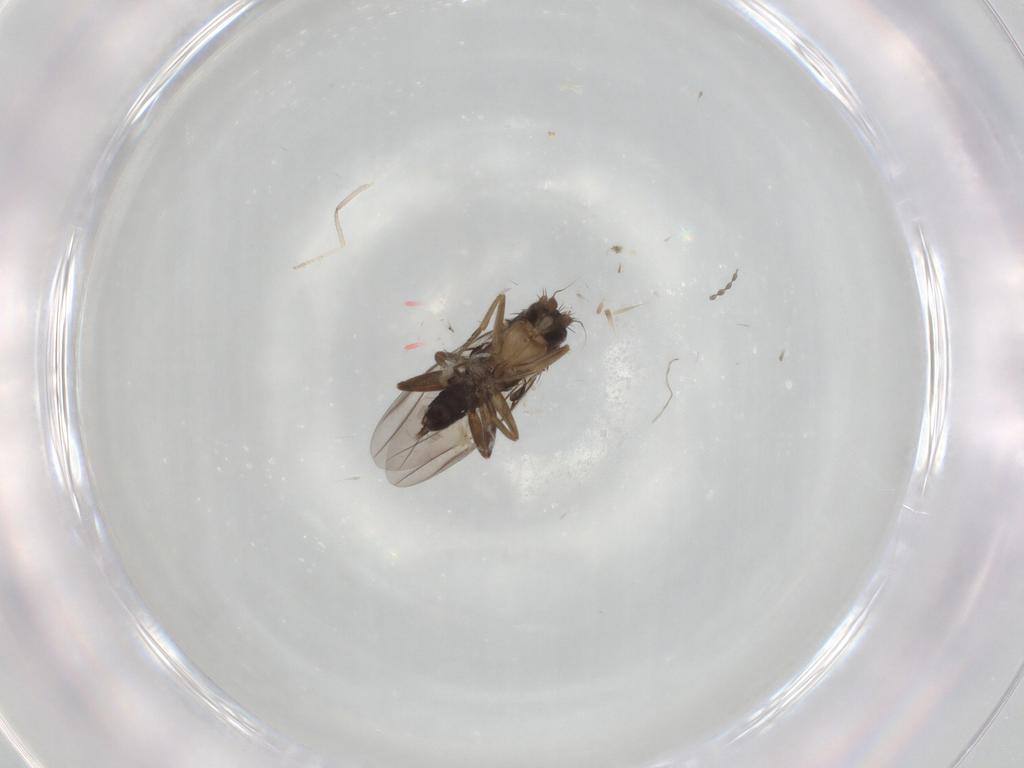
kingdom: Animalia
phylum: Arthropoda
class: Insecta
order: Diptera
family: Phoridae
